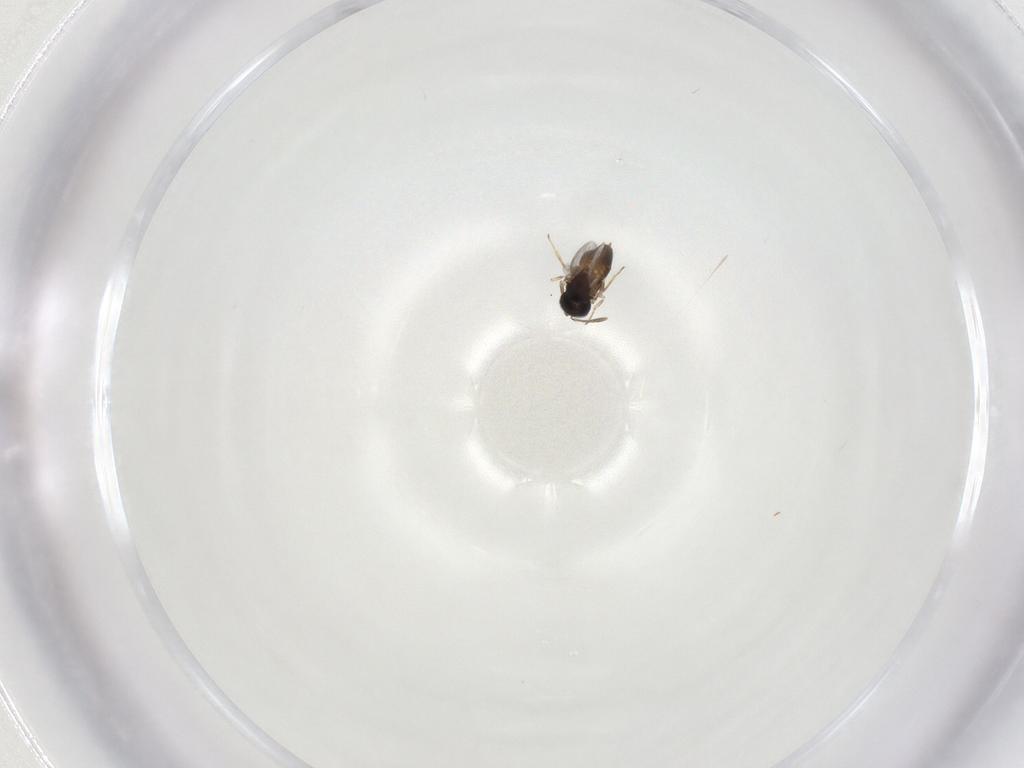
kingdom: Animalia
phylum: Arthropoda
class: Insecta
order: Hymenoptera
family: Encyrtidae
